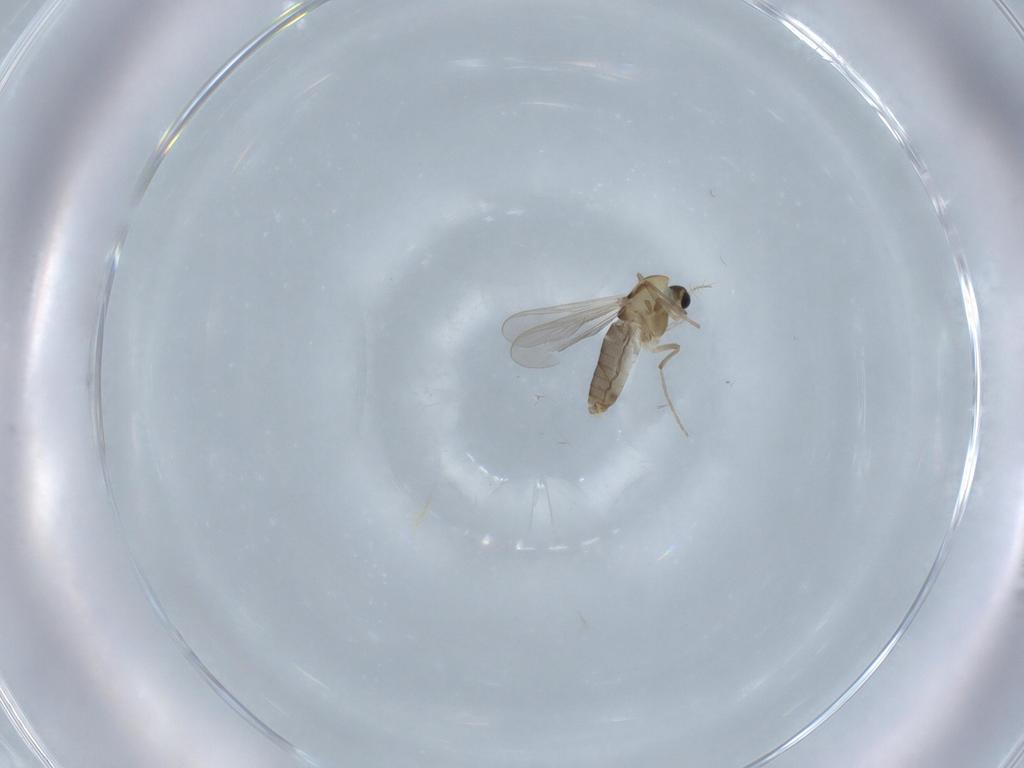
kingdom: Animalia
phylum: Arthropoda
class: Insecta
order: Diptera
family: Chironomidae
